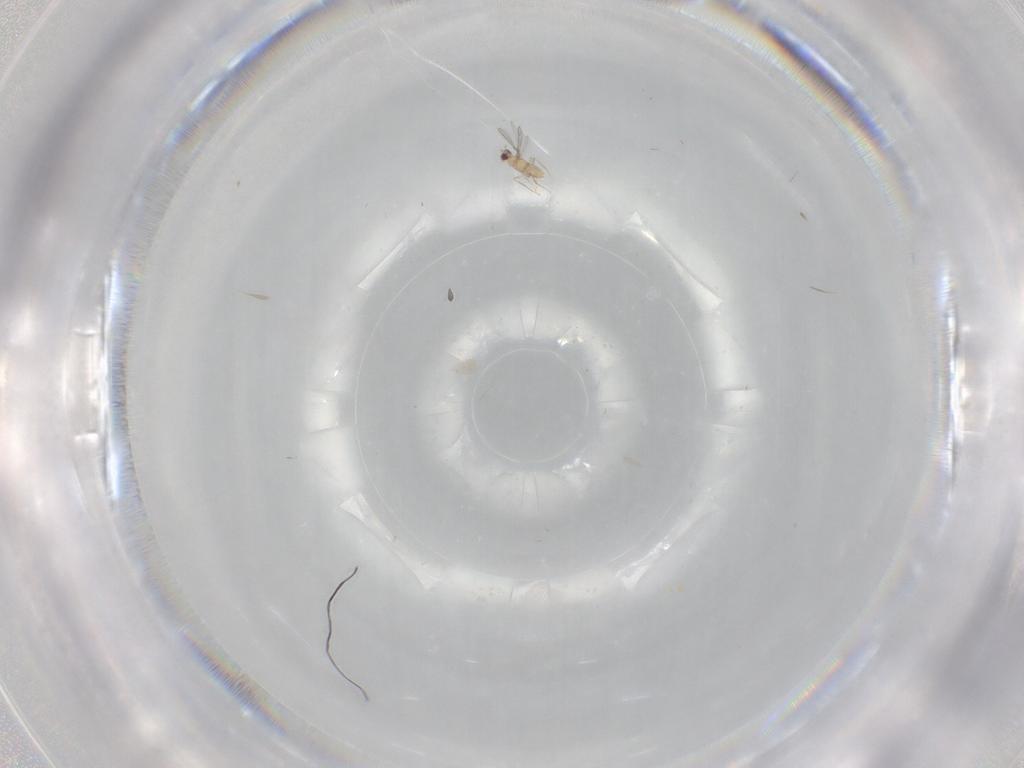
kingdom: Animalia
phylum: Arthropoda
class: Insecta
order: Hymenoptera
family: Mymaridae
